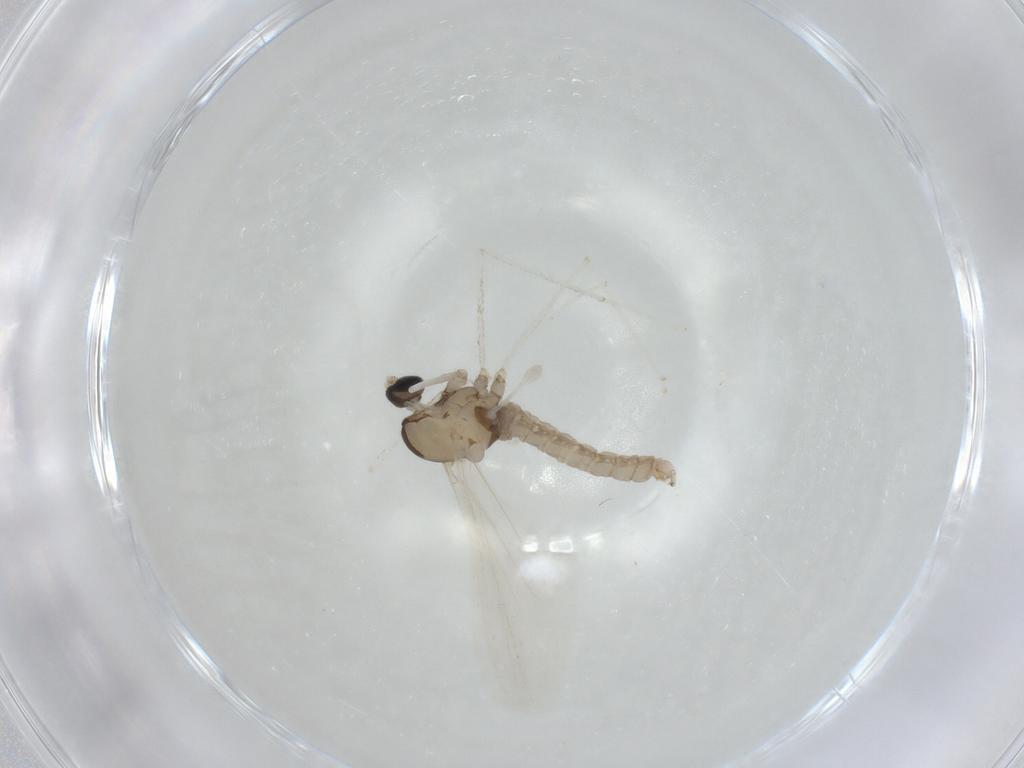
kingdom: Animalia
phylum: Arthropoda
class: Insecta
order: Diptera
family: Cecidomyiidae
